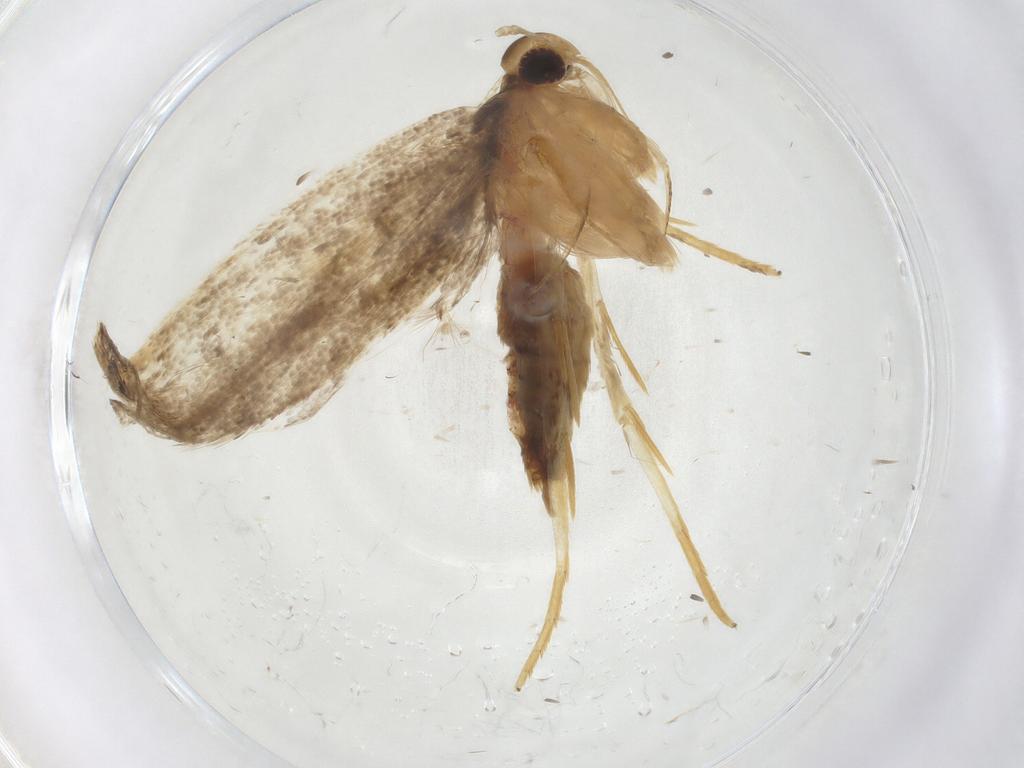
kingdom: Animalia
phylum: Arthropoda
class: Insecta
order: Lepidoptera
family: Lecithoceridae
